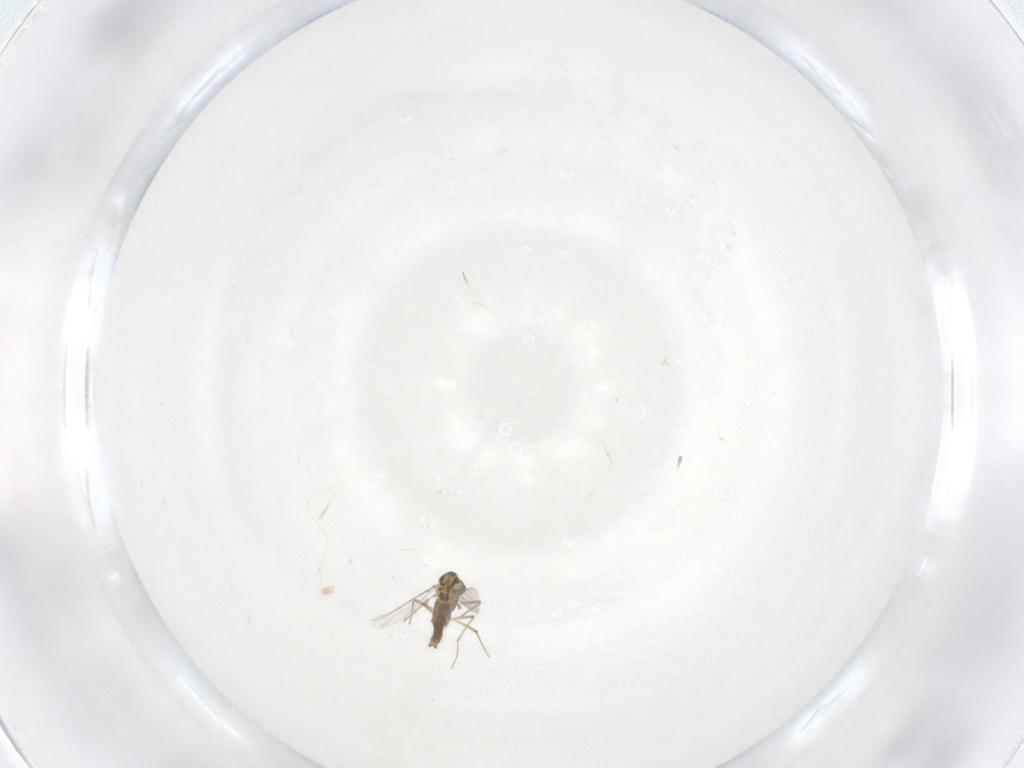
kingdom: Animalia
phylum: Arthropoda
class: Insecta
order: Diptera
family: Chironomidae
